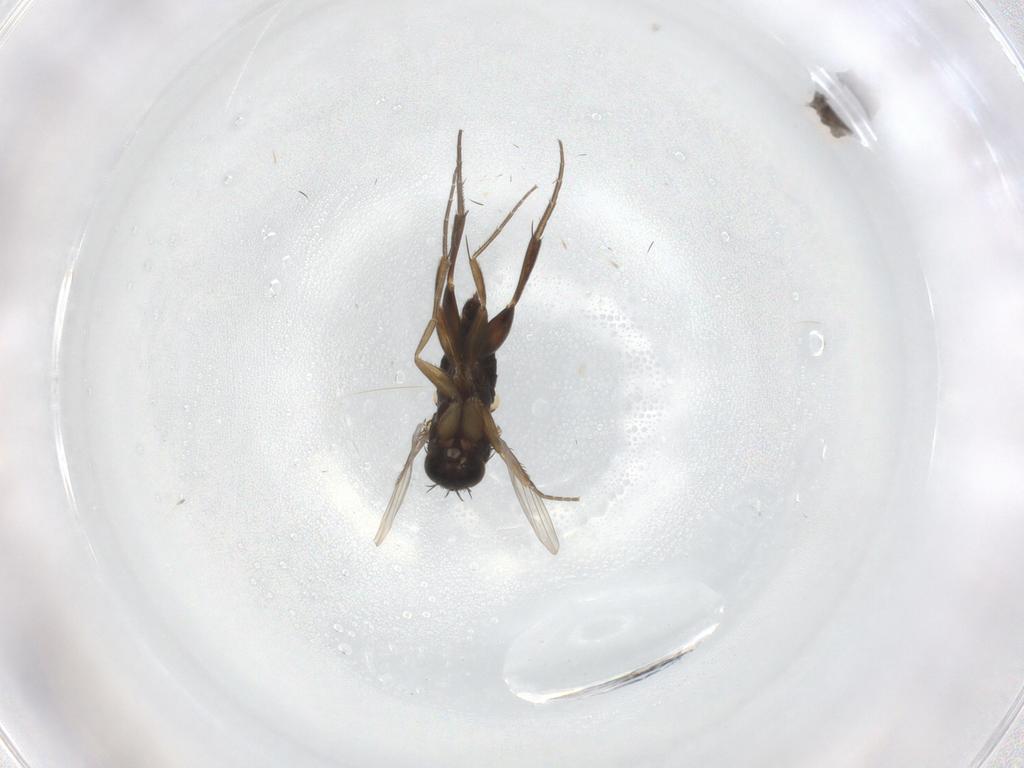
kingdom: Animalia
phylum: Arthropoda
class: Insecta
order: Diptera
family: Phoridae
